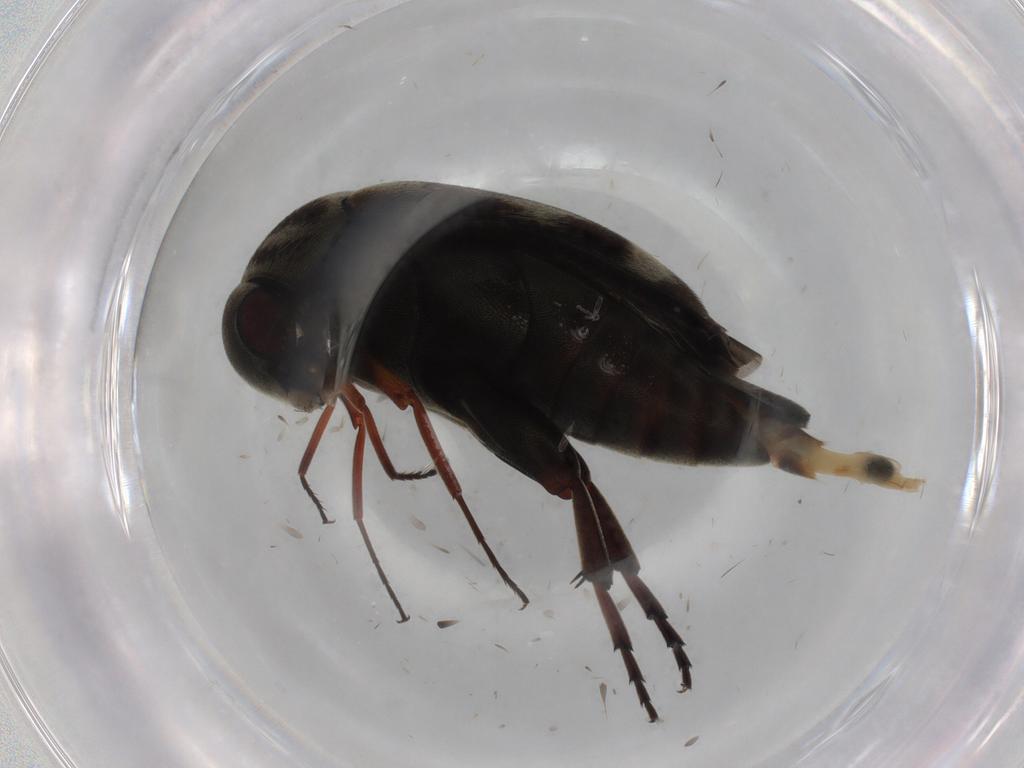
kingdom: Animalia
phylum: Arthropoda
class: Insecta
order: Coleoptera
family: Mordellidae
